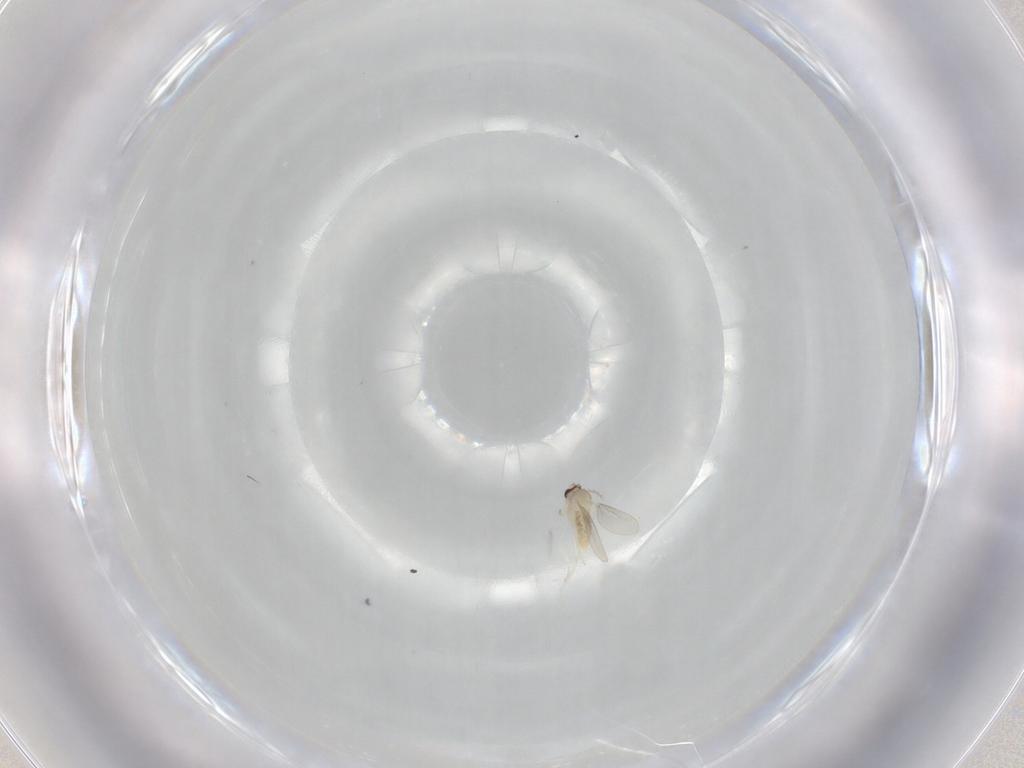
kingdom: Animalia
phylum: Arthropoda
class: Insecta
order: Diptera
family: Cecidomyiidae
